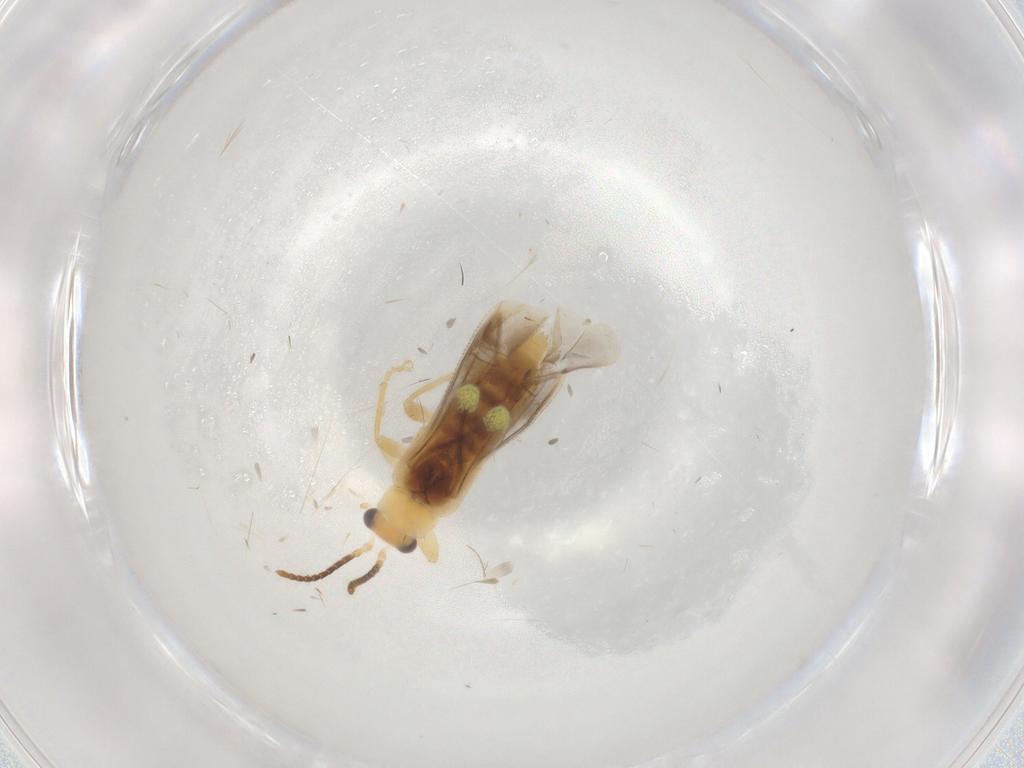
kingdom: Animalia
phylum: Arthropoda
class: Insecta
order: Coleoptera
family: Cantharidae
